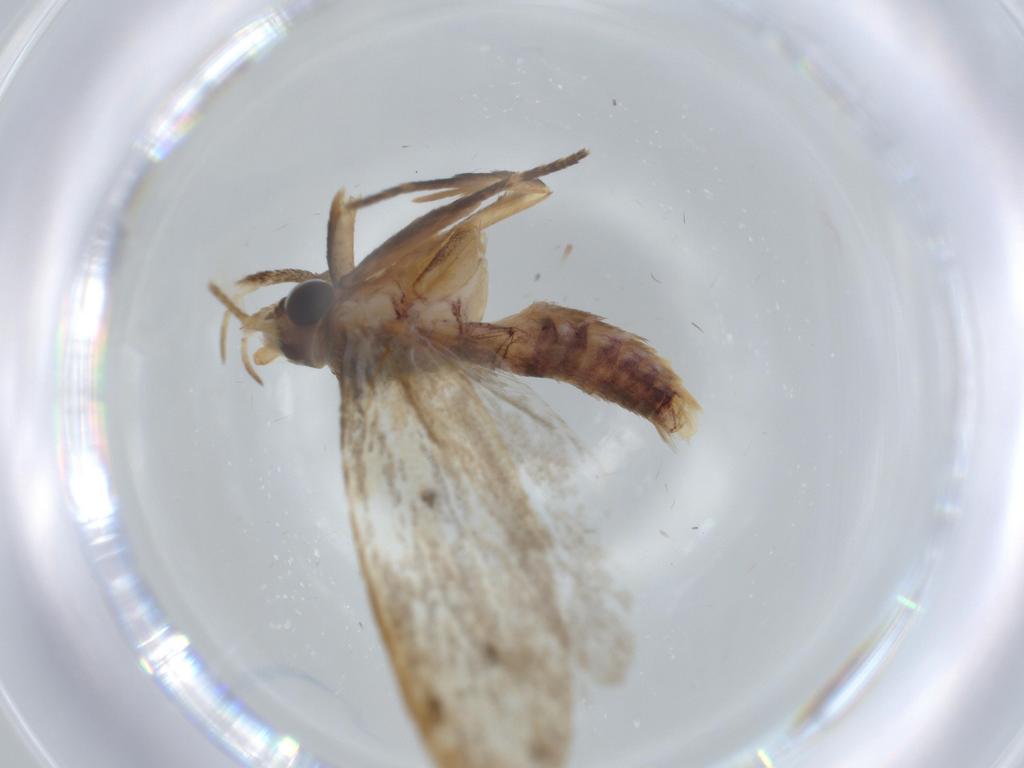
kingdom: Animalia
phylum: Arthropoda
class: Insecta
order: Lepidoptera
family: Oecophoridae
